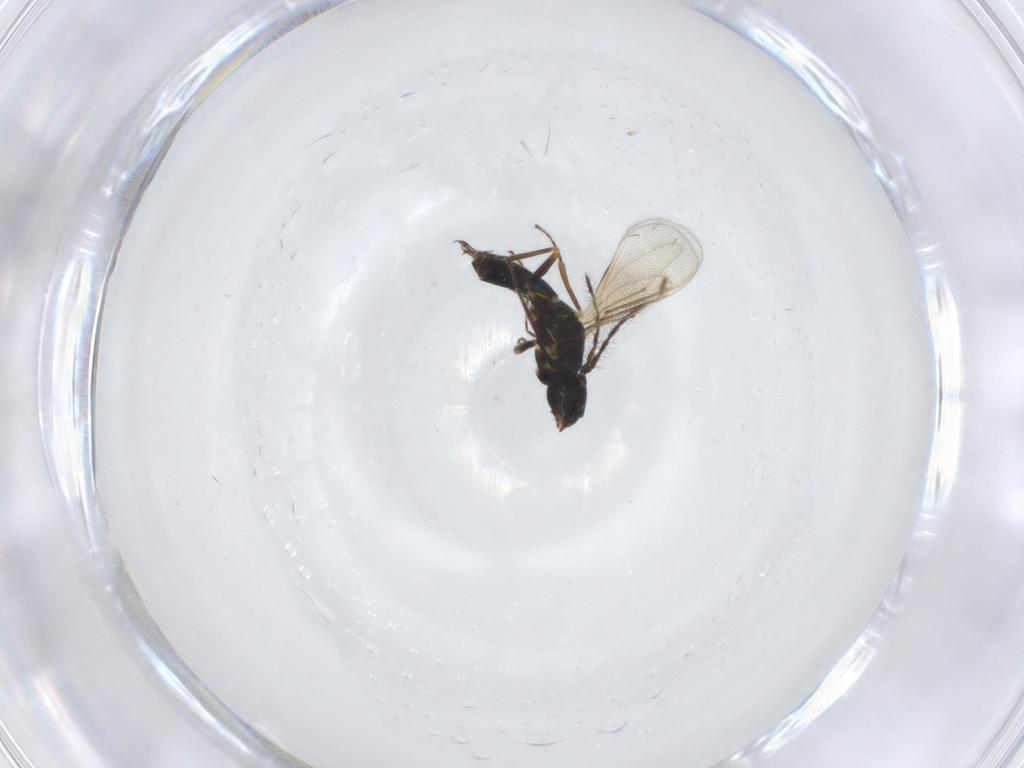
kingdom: Animalia
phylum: Arthropoda
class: Insecta
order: Hymenoptera
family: Eulophidae
